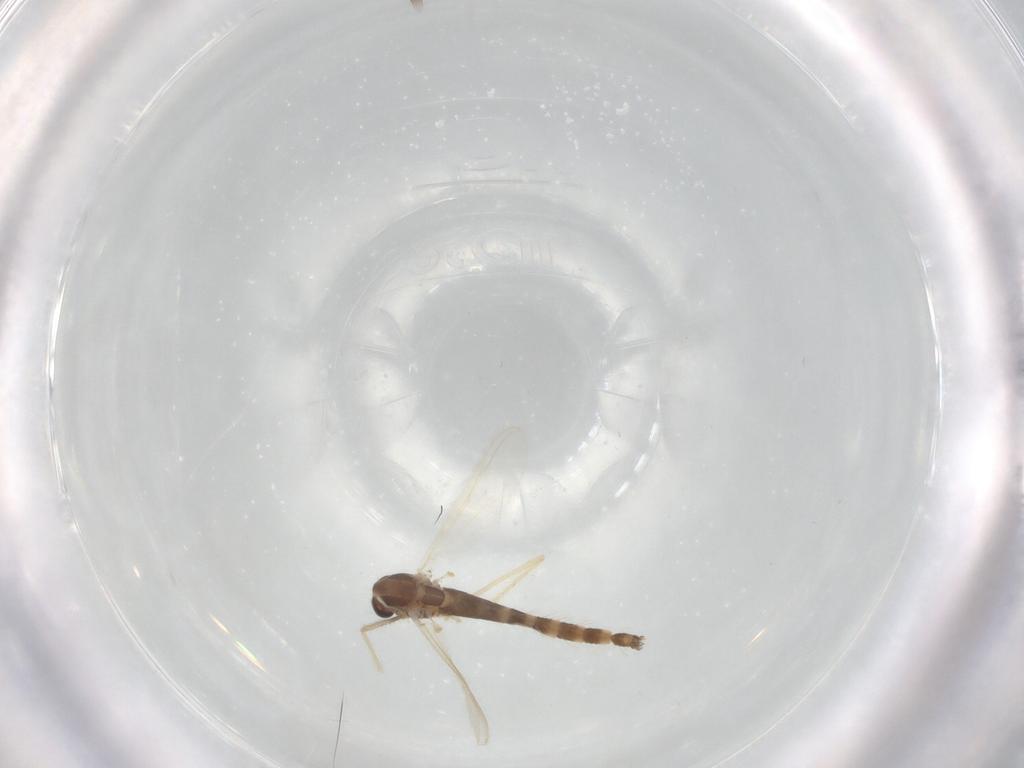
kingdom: Animalia
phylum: Arthropoda
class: Insecta
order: Diptera
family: Chironomidae
